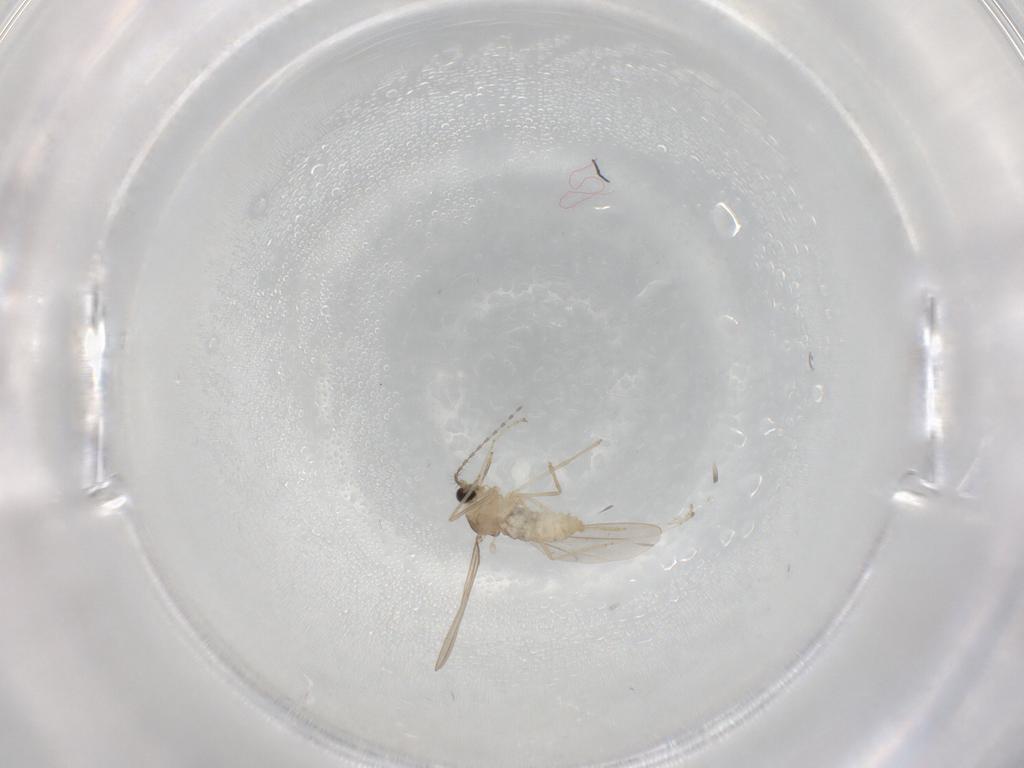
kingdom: Animalia
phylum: Arthropoda
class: Insecta
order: Diptera
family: Cecidomyiidae
